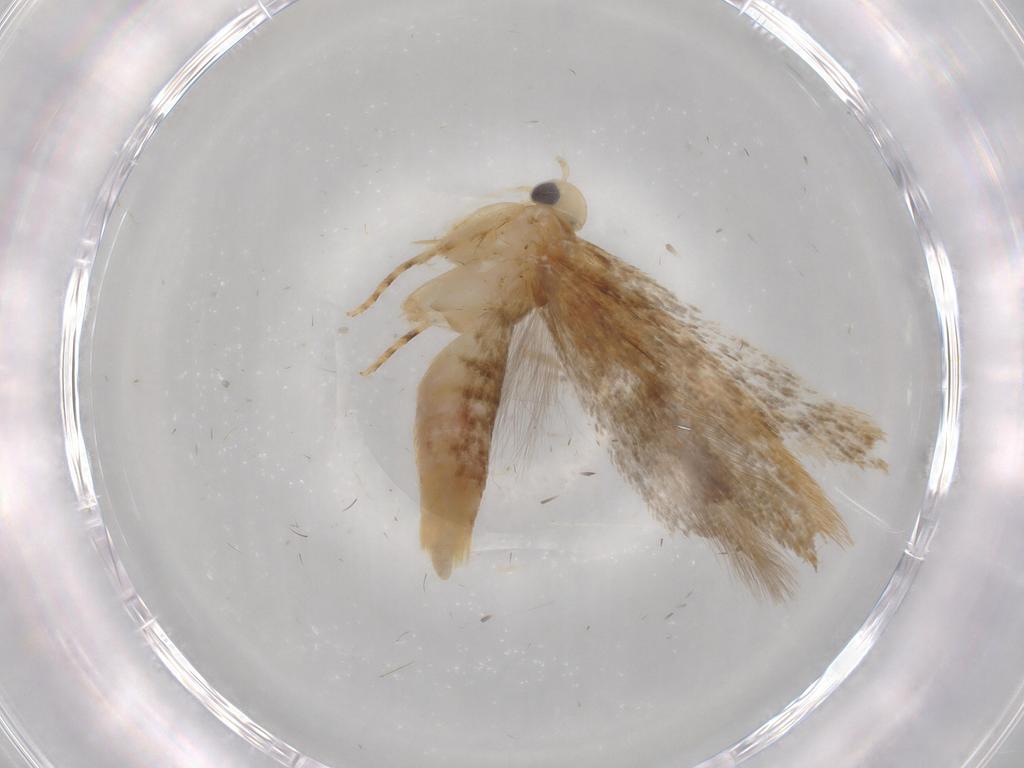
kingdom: Animalia
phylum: Arthropoda
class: Insecta
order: Lepidoptera
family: Gelechiidae
